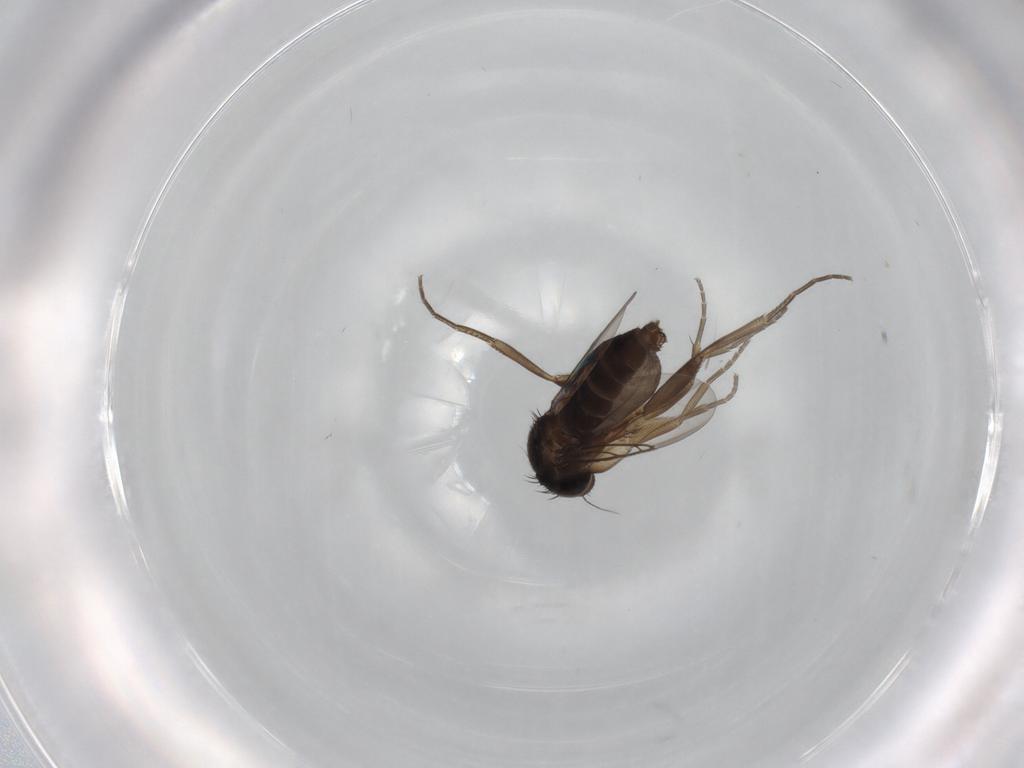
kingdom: Animalia
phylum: Arthropoda
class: Insecta
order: Diptera
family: Phoridae
